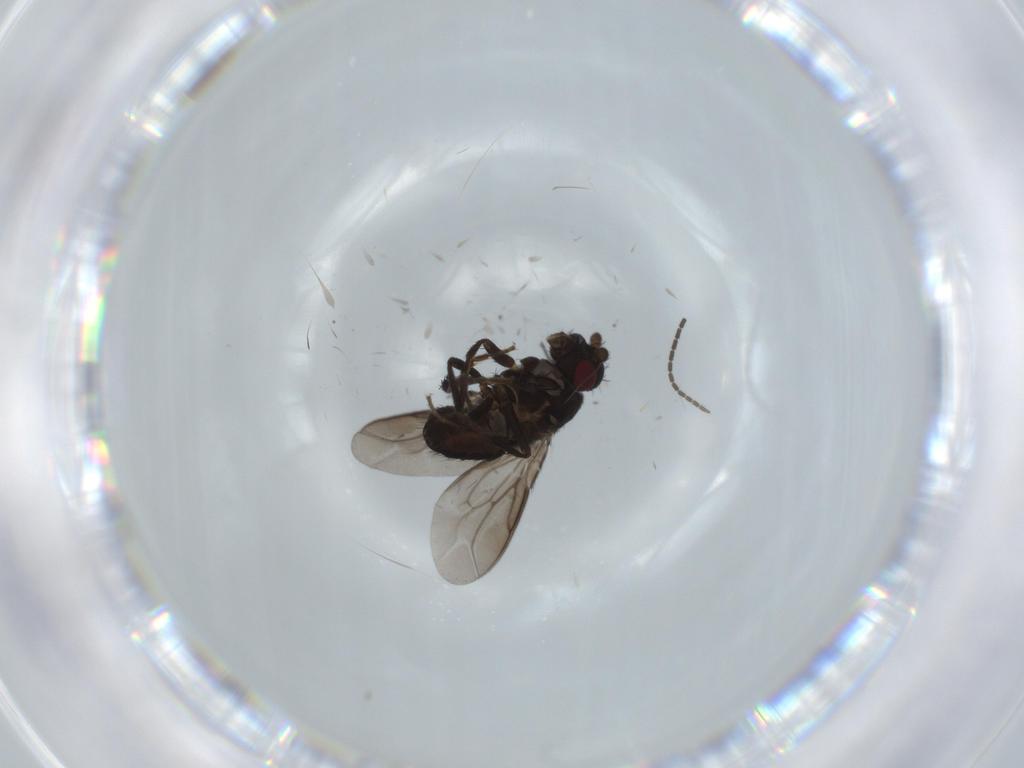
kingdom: Animalia
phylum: Arthropoda
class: Insecta
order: Diptera
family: Sphaeroceridae
